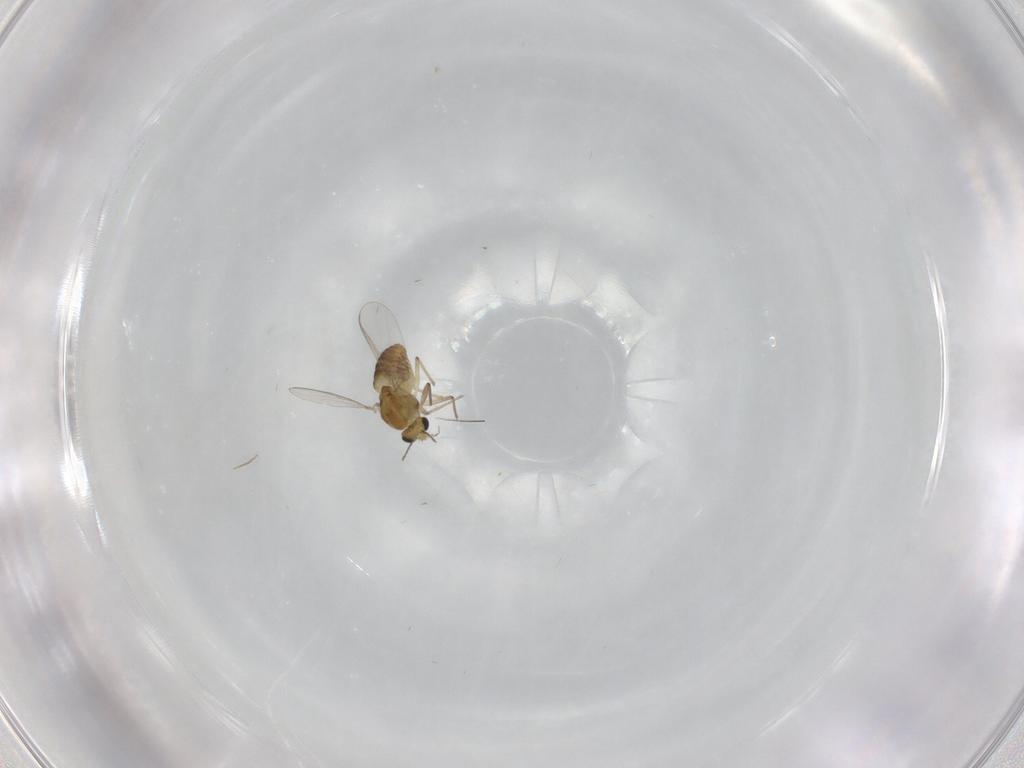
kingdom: Animalia
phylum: Arthropoda
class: Insecta
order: Diptera
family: Chironomidae
